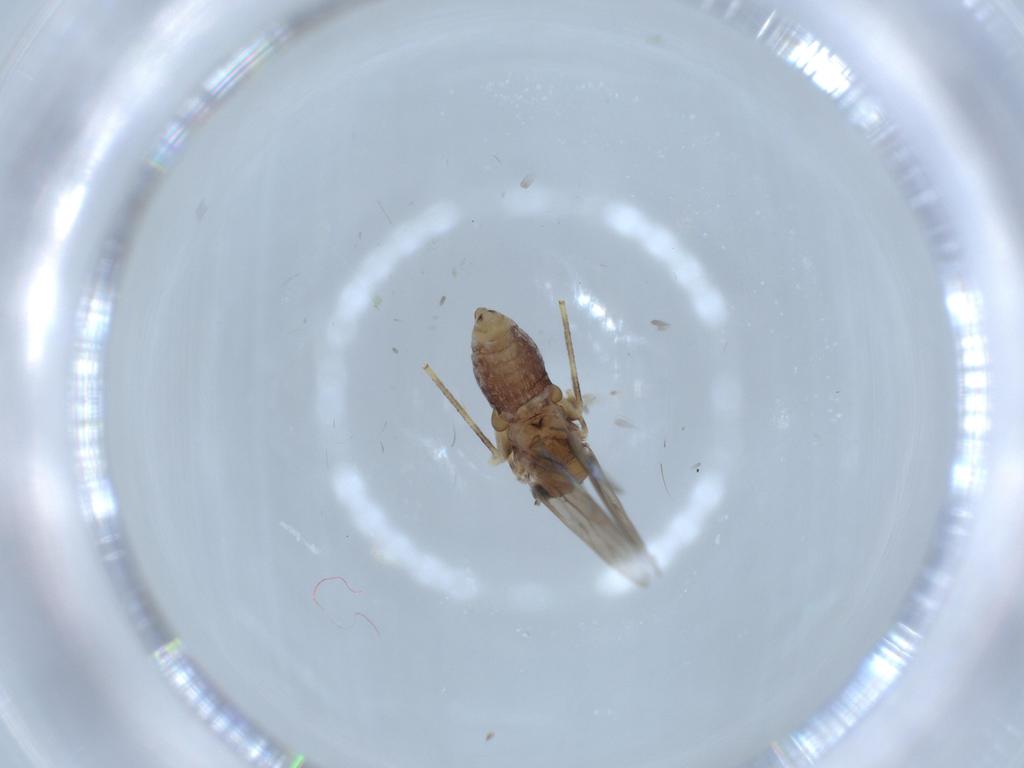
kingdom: Animalia
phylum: Arthropoda
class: Insecta
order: Psocodea
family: Lepidopsocidae
